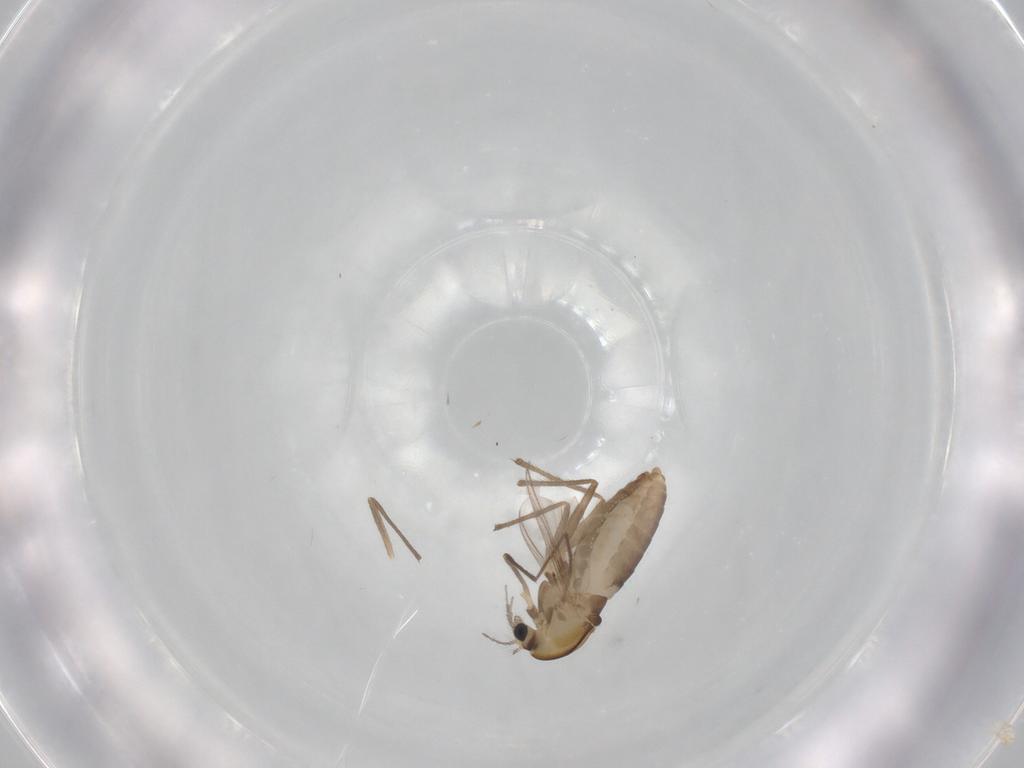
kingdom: Animalia
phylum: Arthropoda
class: Insecta
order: Diptera
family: Chironomidae
